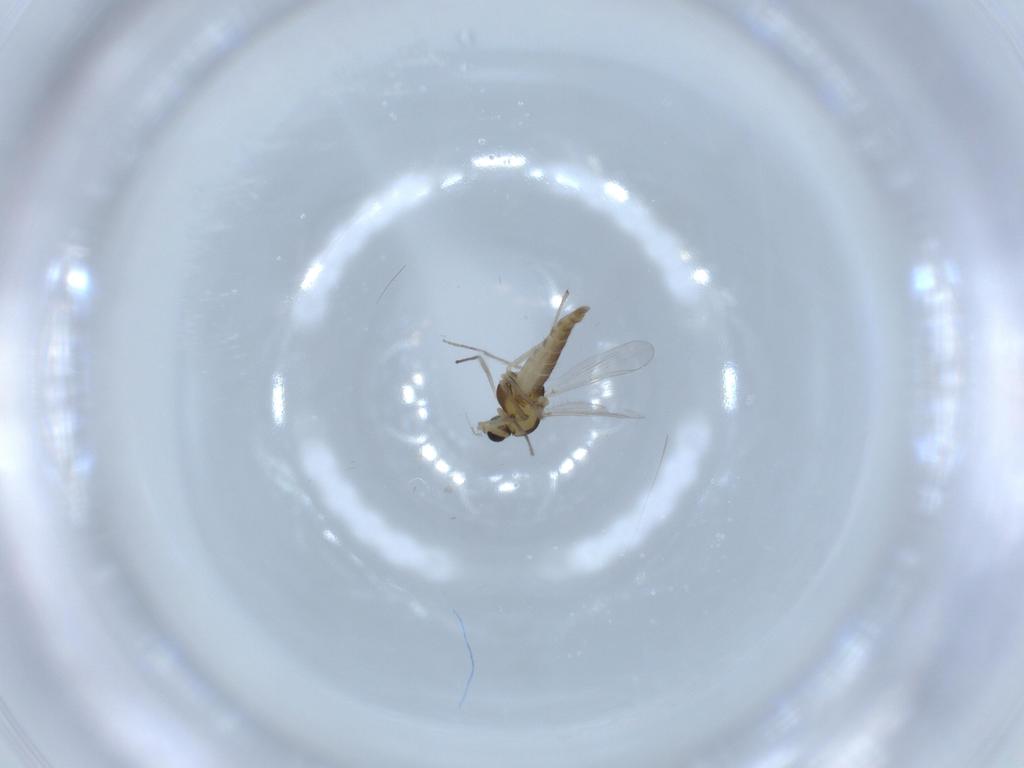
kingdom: Animalia
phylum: Arthropoda
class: Insecta
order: Diptera
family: Chironomidae
